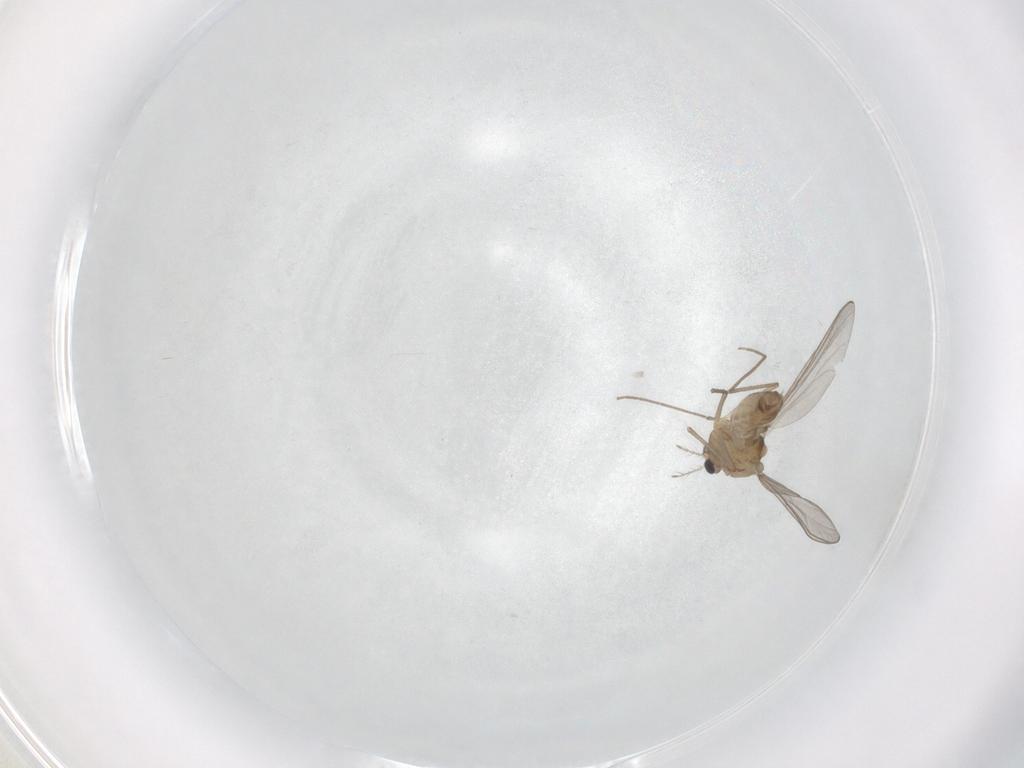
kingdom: Animalia
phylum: Arthropoda
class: Insecta
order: Diptera
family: Chironomidae
